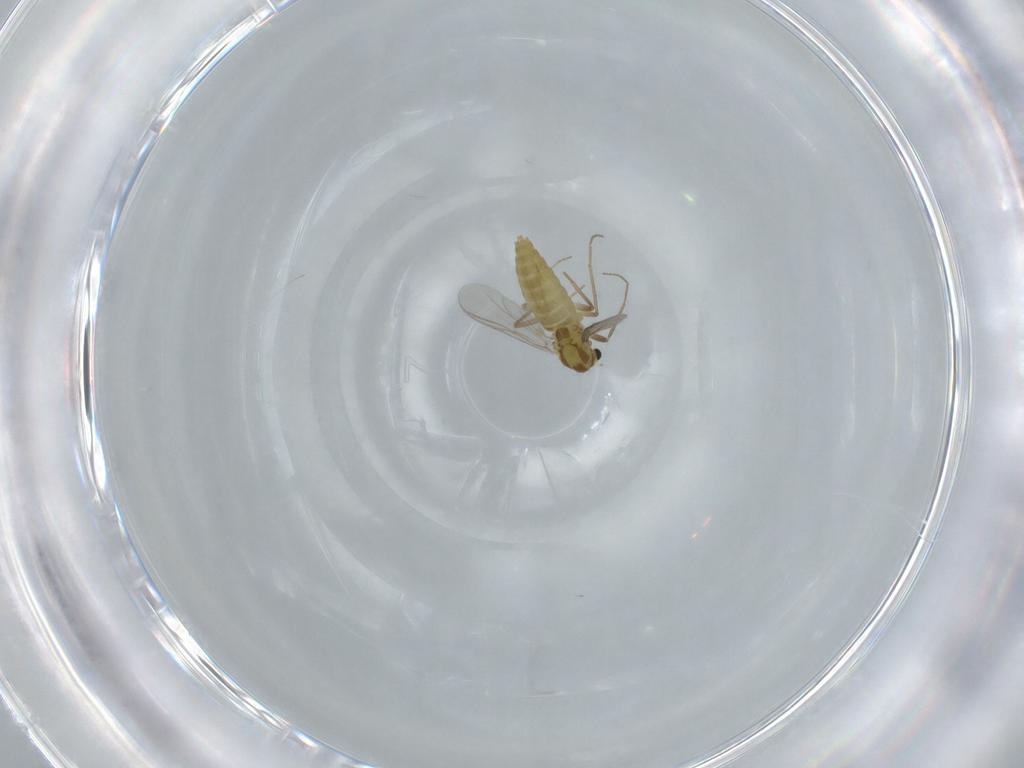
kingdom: Animalia
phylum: Arthropoda
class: Insecta
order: Diptera
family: Chironomidae
